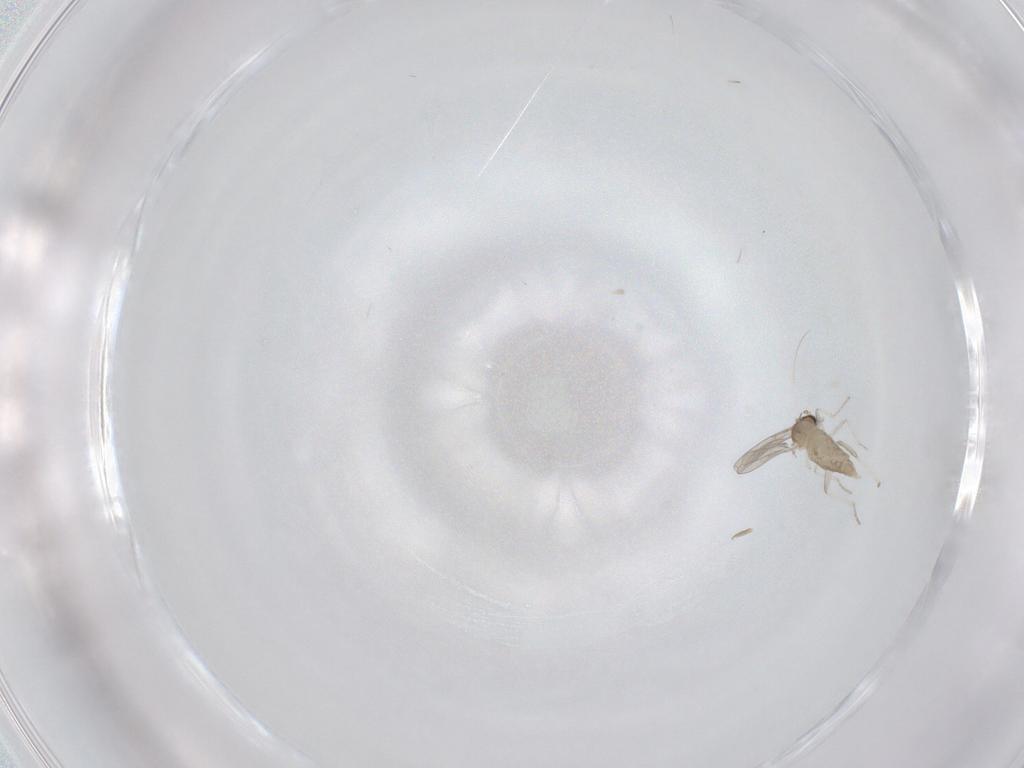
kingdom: Animalia
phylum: Arthropoda
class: Insecta
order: Diptera
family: Cecidomyiidae
